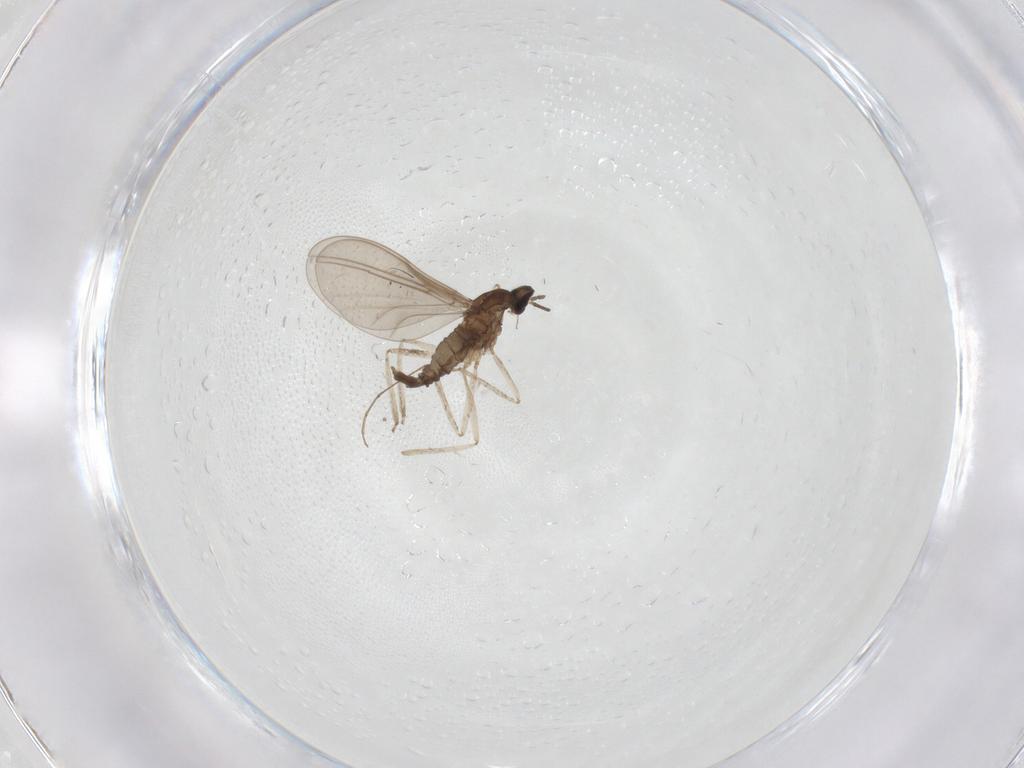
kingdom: Animalia
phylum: Arthropoda
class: Insecta
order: Diptera
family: Cecidomyiidae
